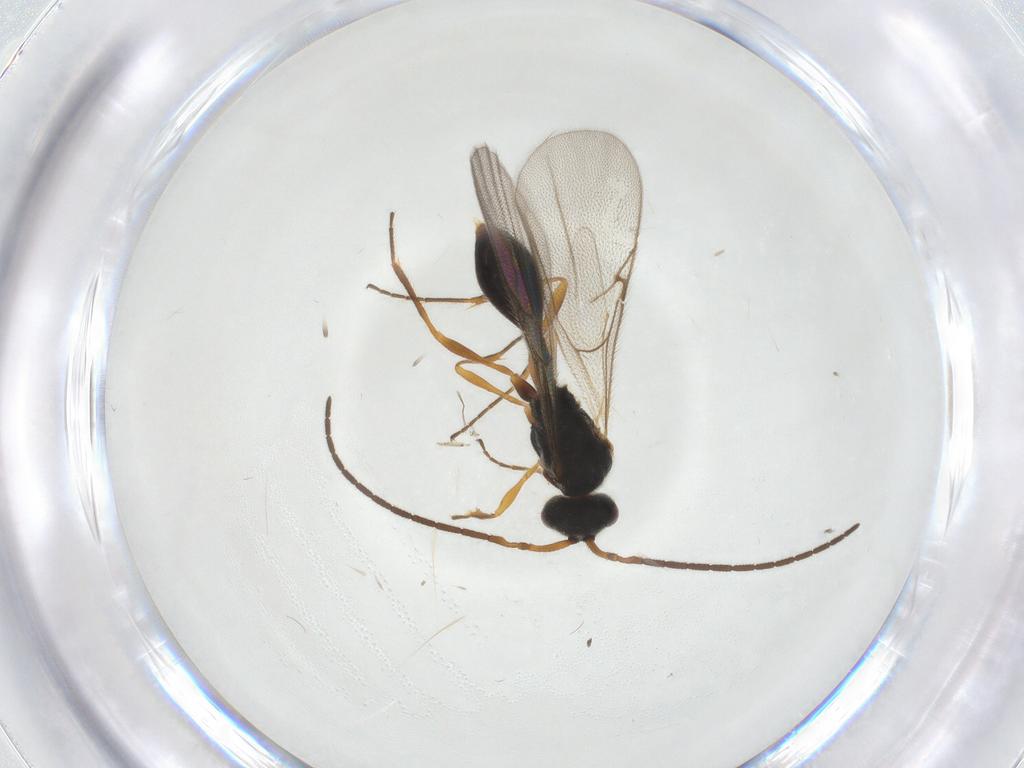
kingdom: Animalia
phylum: Arthropoda
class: Insecta
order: Hymenoptera
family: Diapriidae
